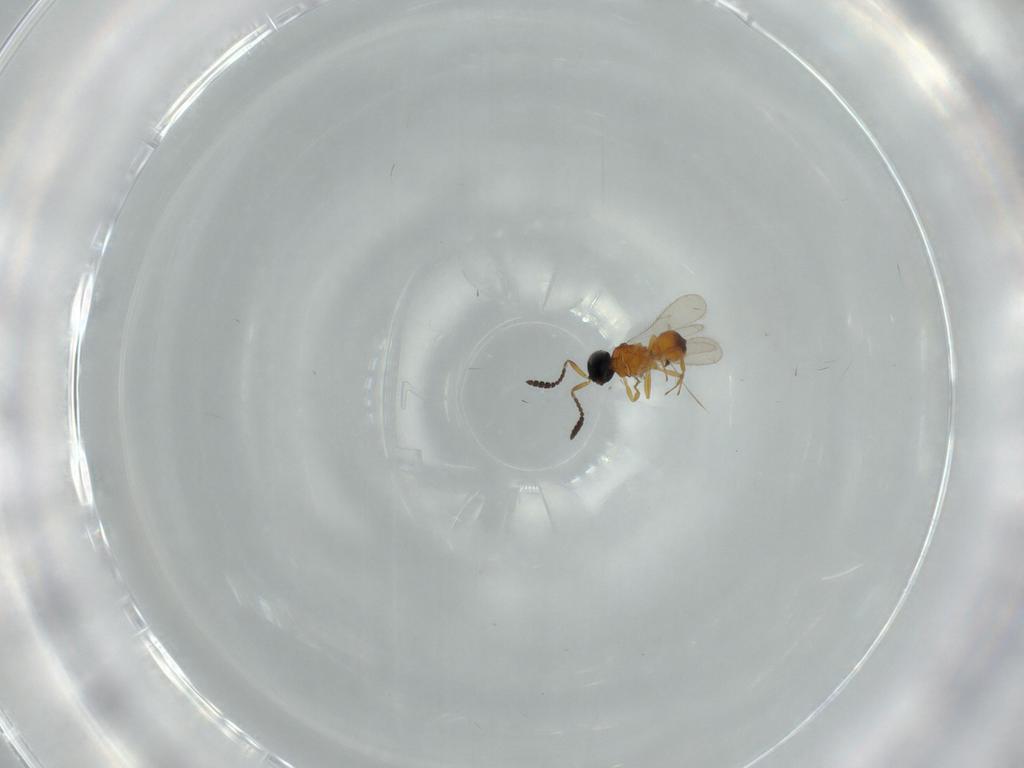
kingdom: Animalia
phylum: Arthropoda
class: Insecta
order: Hymenoptera
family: Scelionidae
